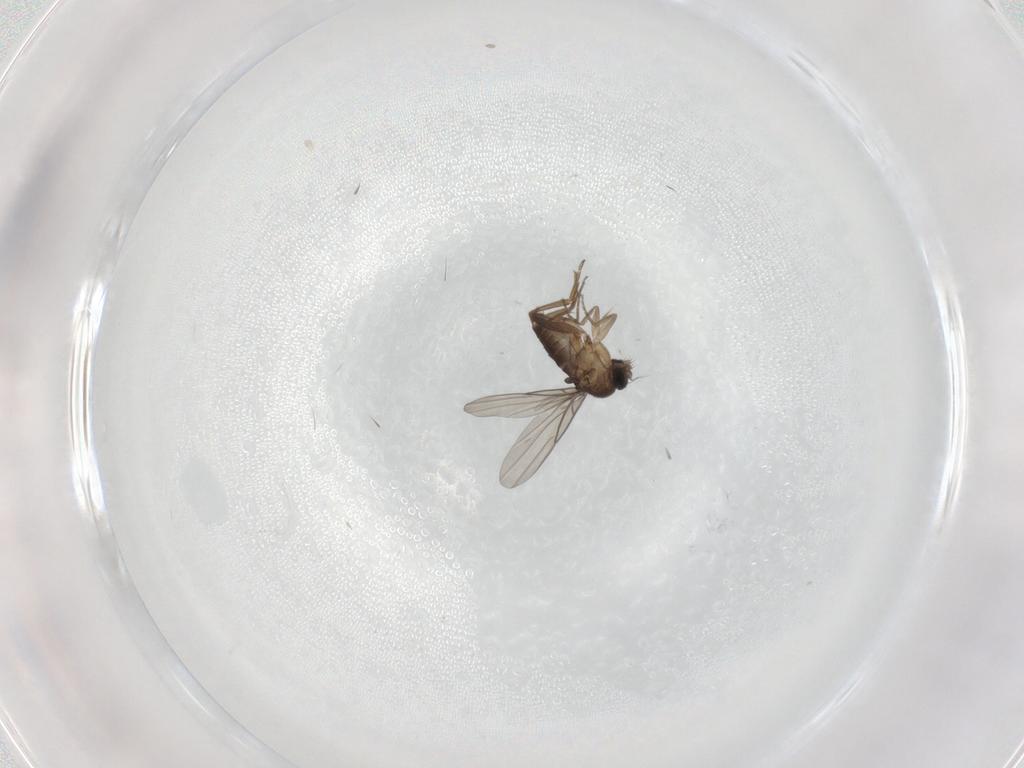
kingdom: Animalia
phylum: Arthropoda
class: Insecta
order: Diptera
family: Phoridae
